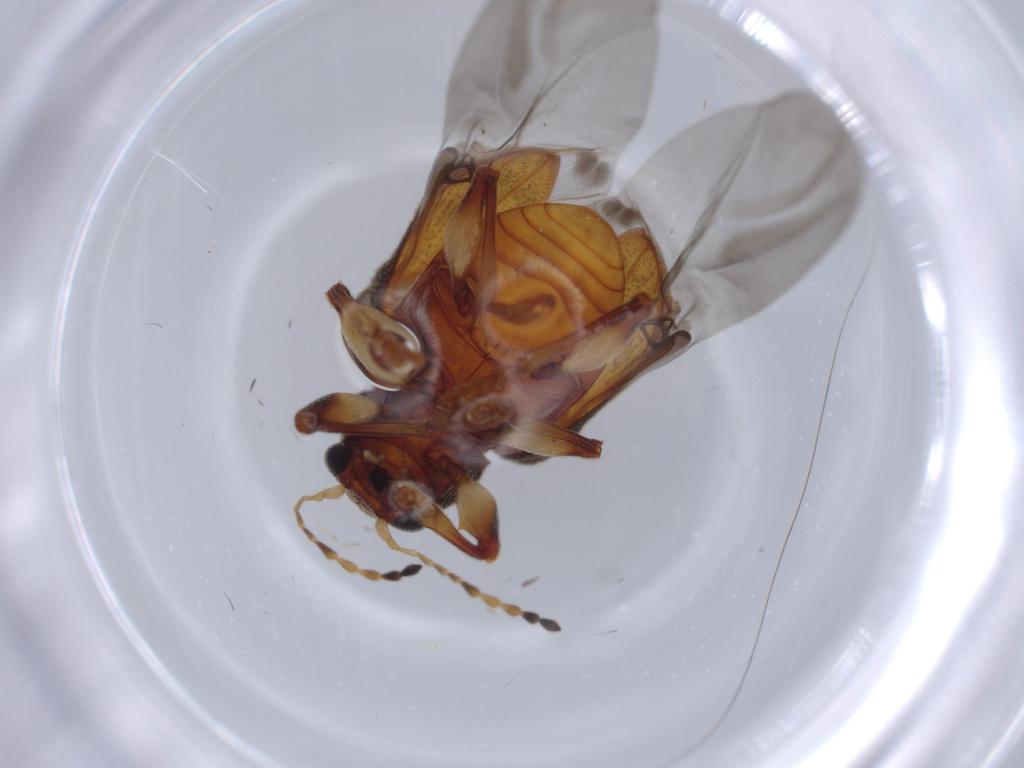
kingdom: Animalia
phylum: Arthropoda
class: Insecta
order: Coleoptera
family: Chrysomelidae
